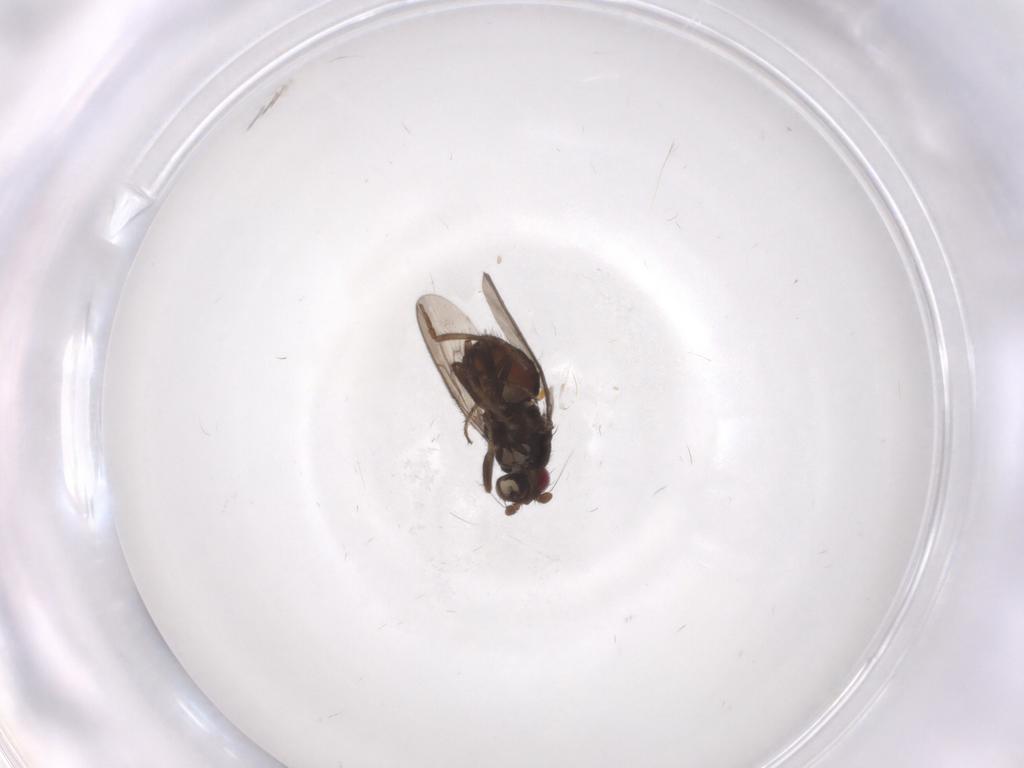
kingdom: Animalia
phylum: Arthropoda
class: Insecta
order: Diptera
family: Sphaeroceridae
